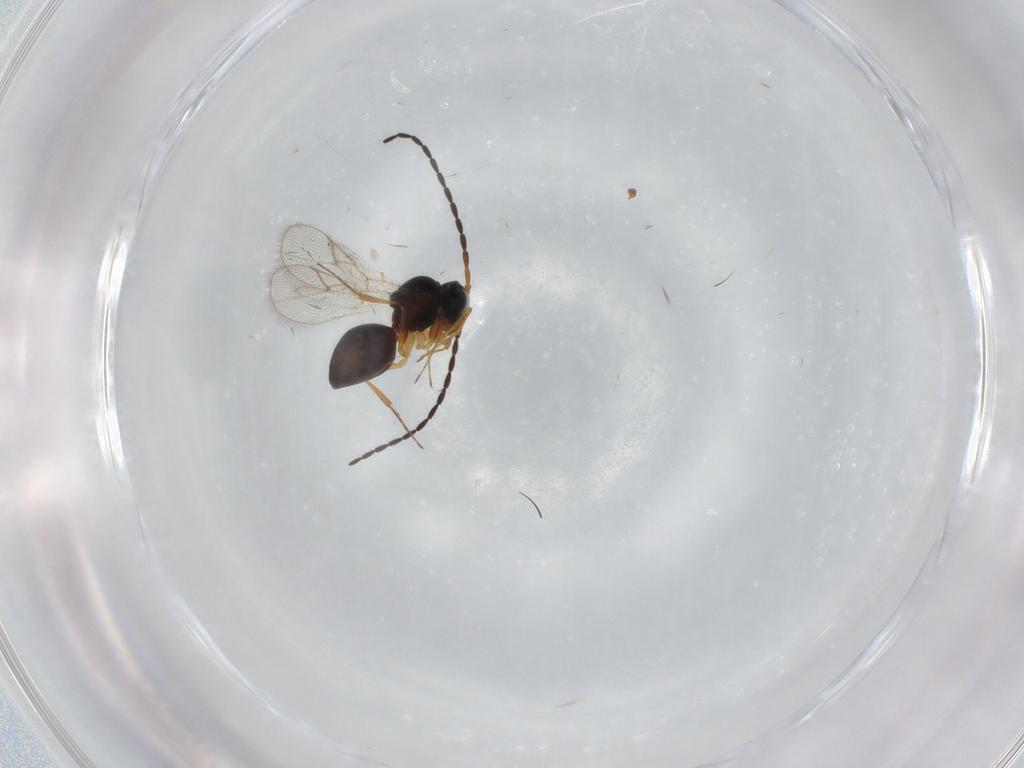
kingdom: Animalia
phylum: Arthropoda
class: Insecta
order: Hymenoptera
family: Figitidae
